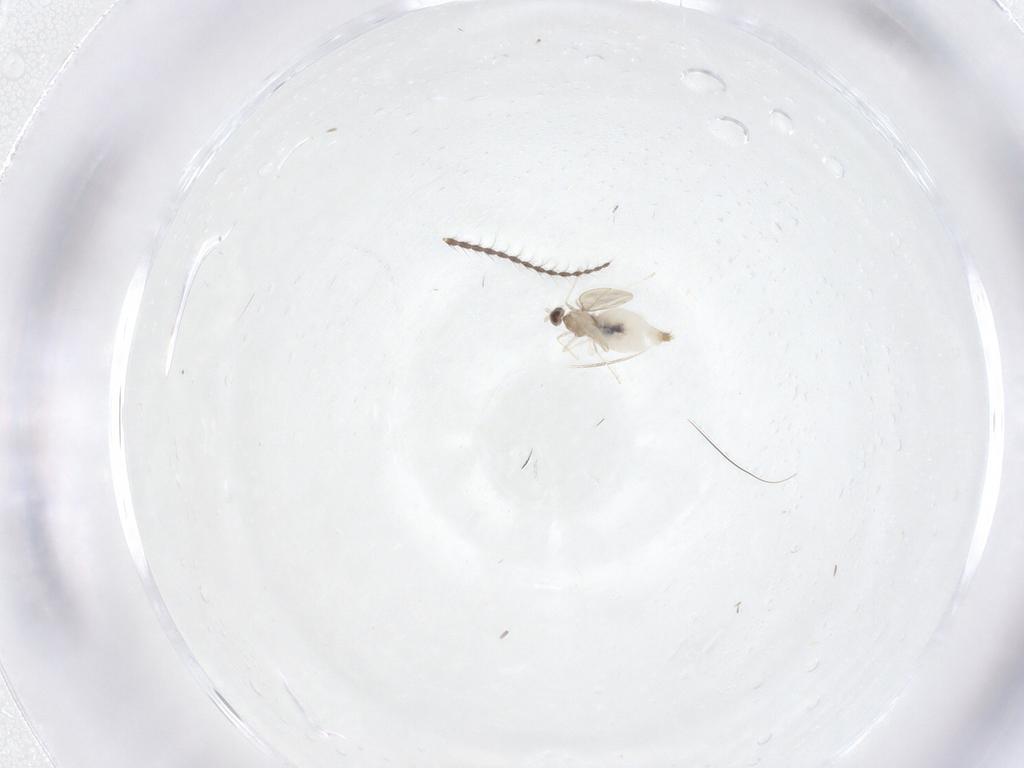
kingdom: Animalia
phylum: Arthropoda
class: Insecta
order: Diptera
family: Limoniidae
